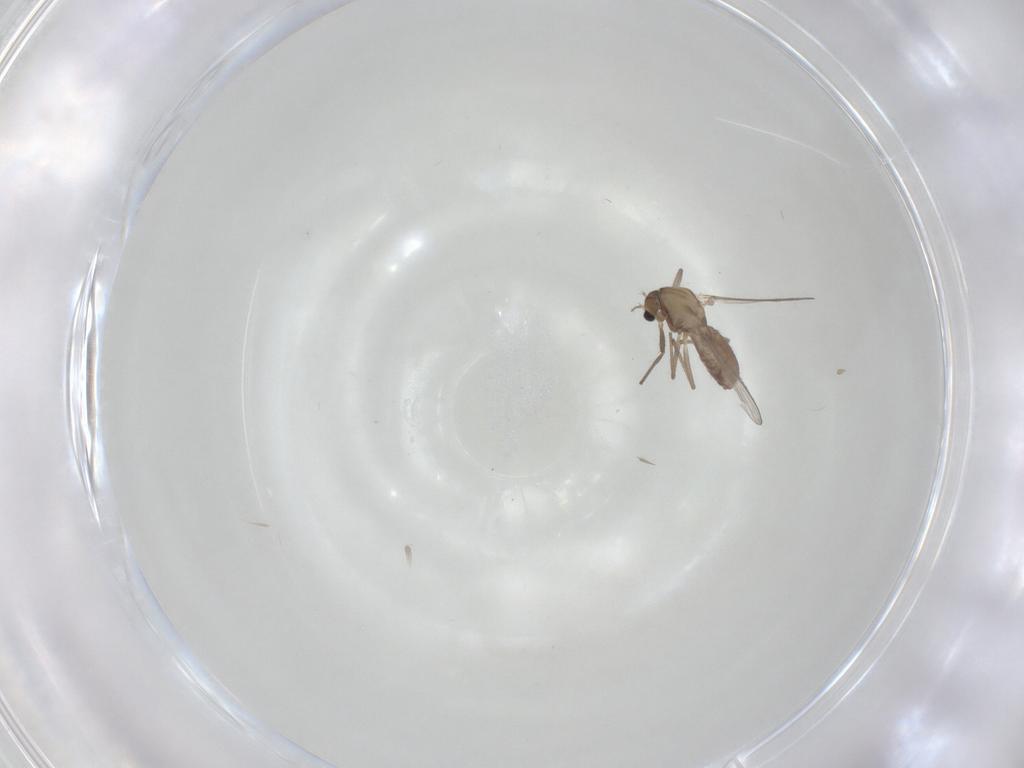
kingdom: Animalia
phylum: Arthropoda
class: Insecta
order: Diptera
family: Chironomidae
